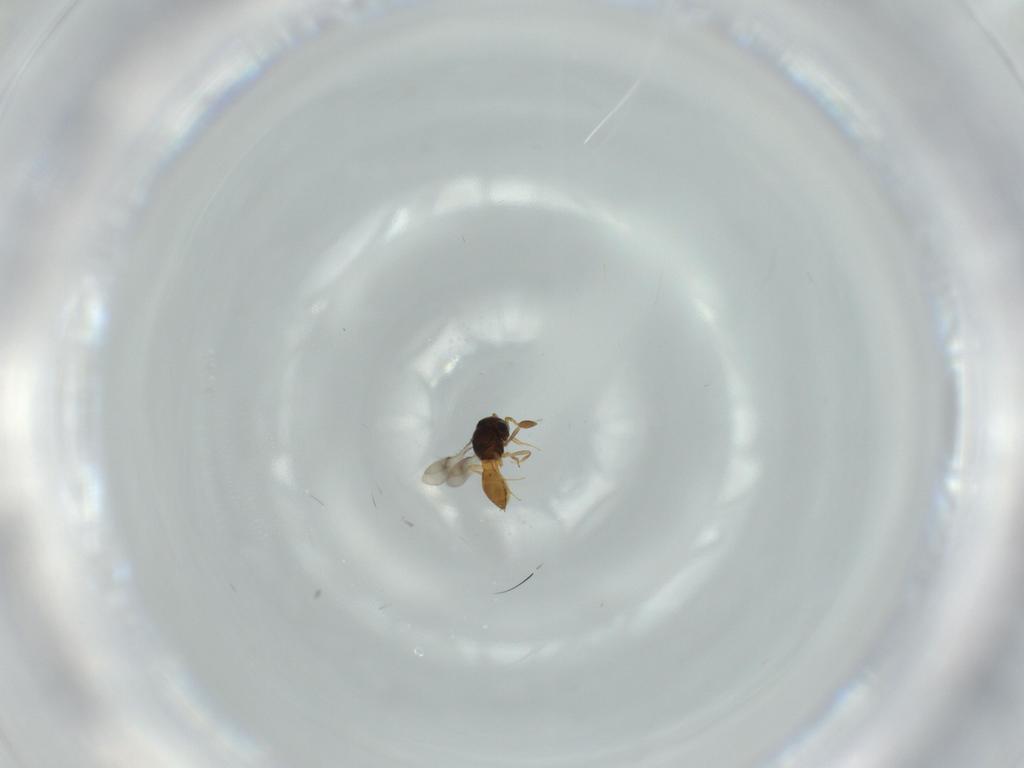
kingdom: Animalia
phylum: Arthropoda
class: Insecta
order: Hymenoptera
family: Scelionidae
